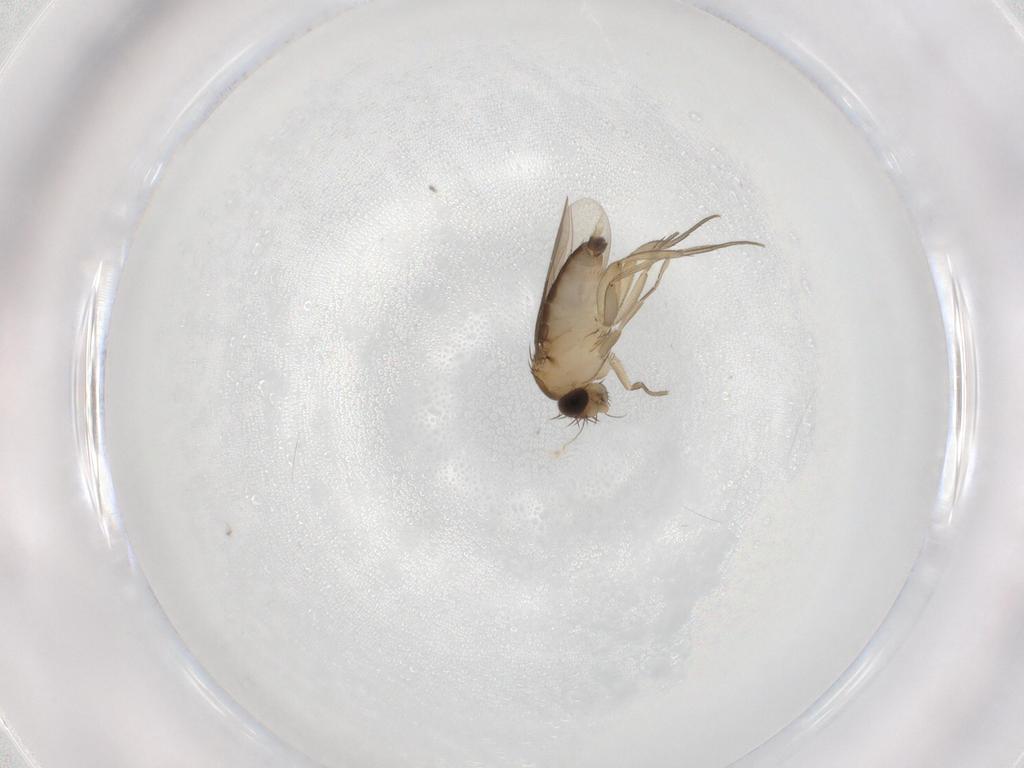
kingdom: Animalia
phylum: Arthropoda
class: Insecta
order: Diptera
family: Phoridae
